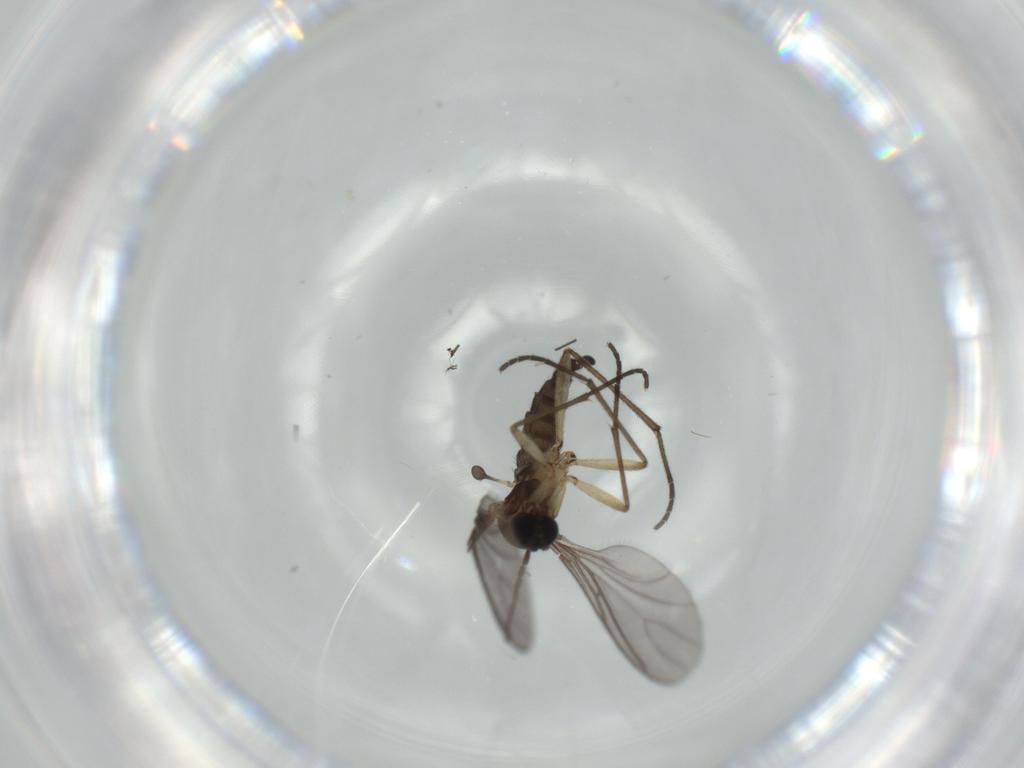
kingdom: Animalia
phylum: Arthropoda
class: Insecta
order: Diptera
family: Sciaridae
